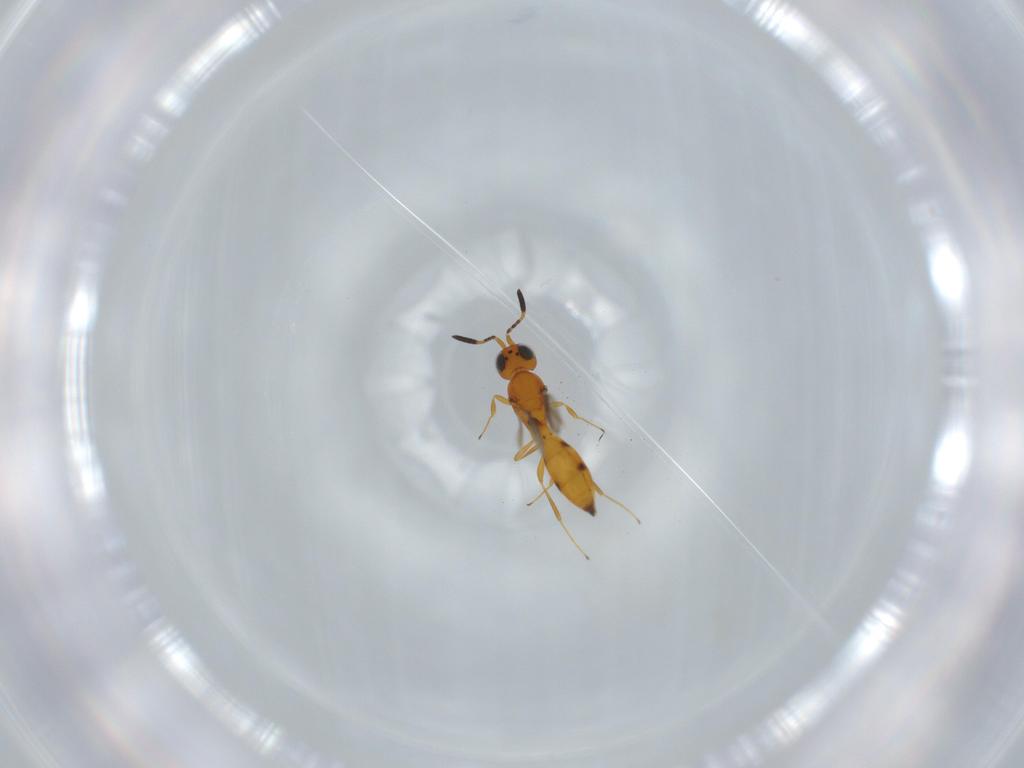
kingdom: Animalia
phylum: Arthropoda
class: Insecta
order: Hymenoptera
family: Scelionidae
